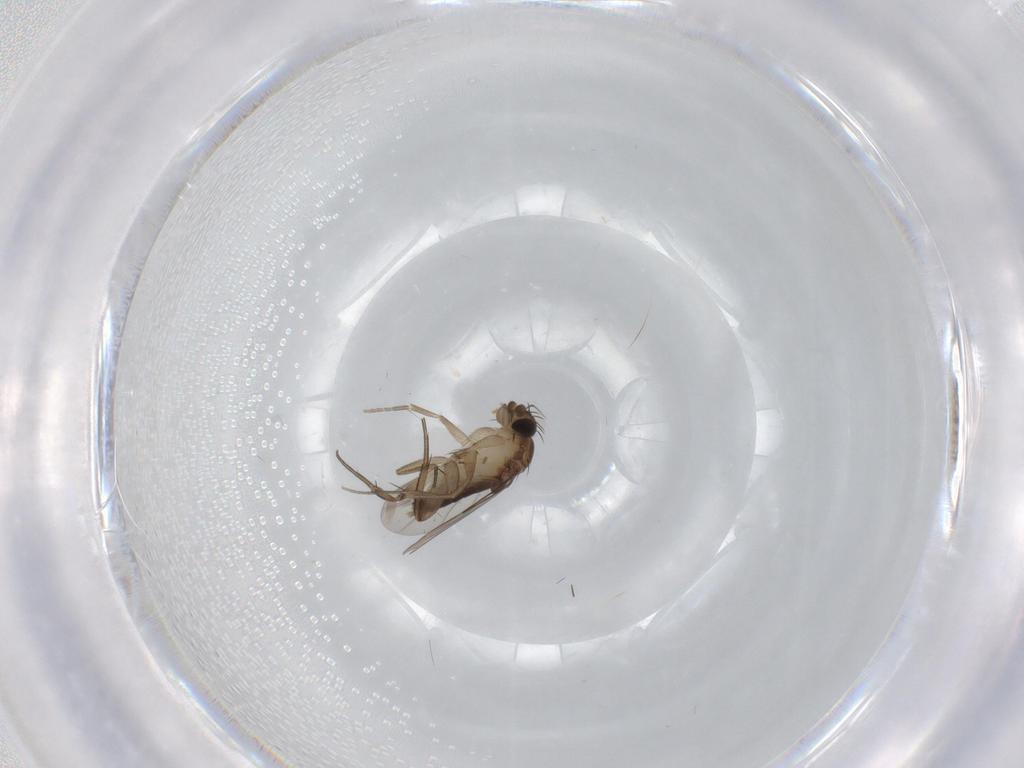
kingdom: Animalia
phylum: Arthropoda
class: Insecta
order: Diptera
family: Phoridae
